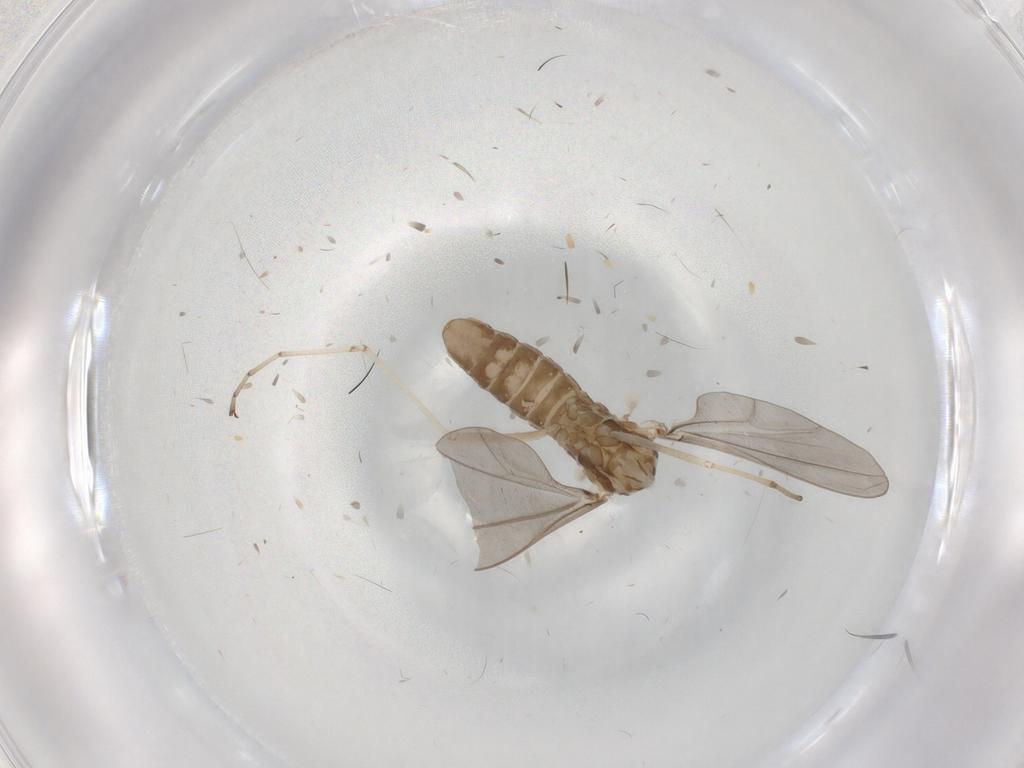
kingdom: Animalia
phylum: Arthropoda
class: Insecta
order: Diptera
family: Cecidomyiidae
